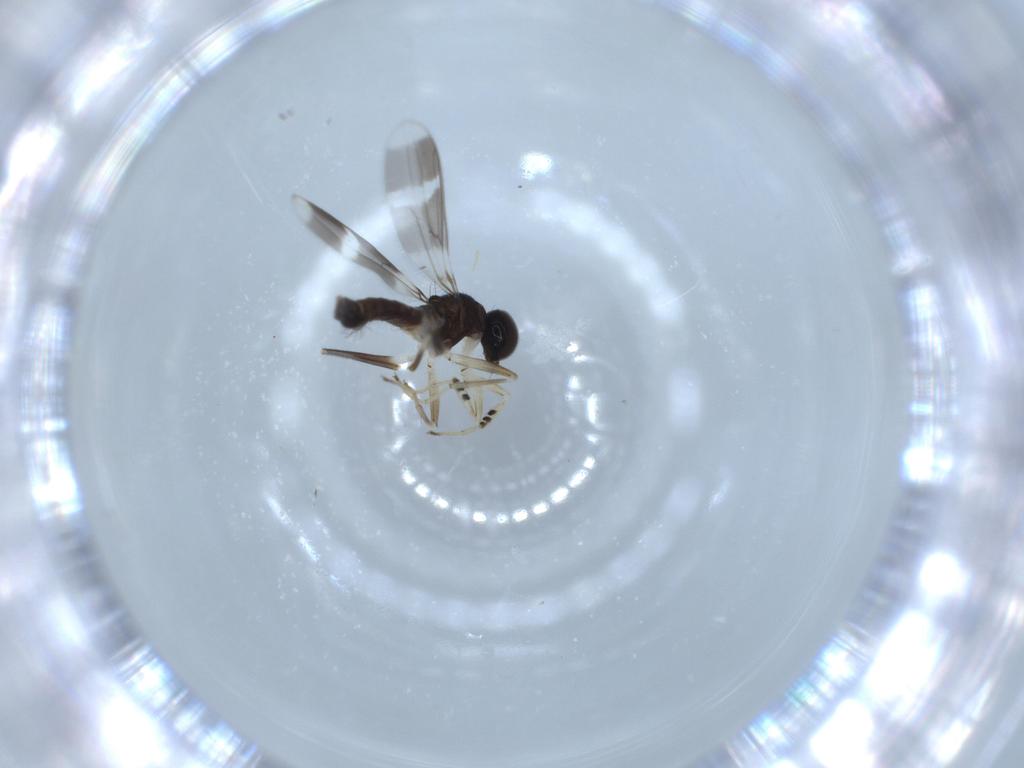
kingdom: Animalia
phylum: Arthropoda
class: Insecta
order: Diptera
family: Hybotidae
